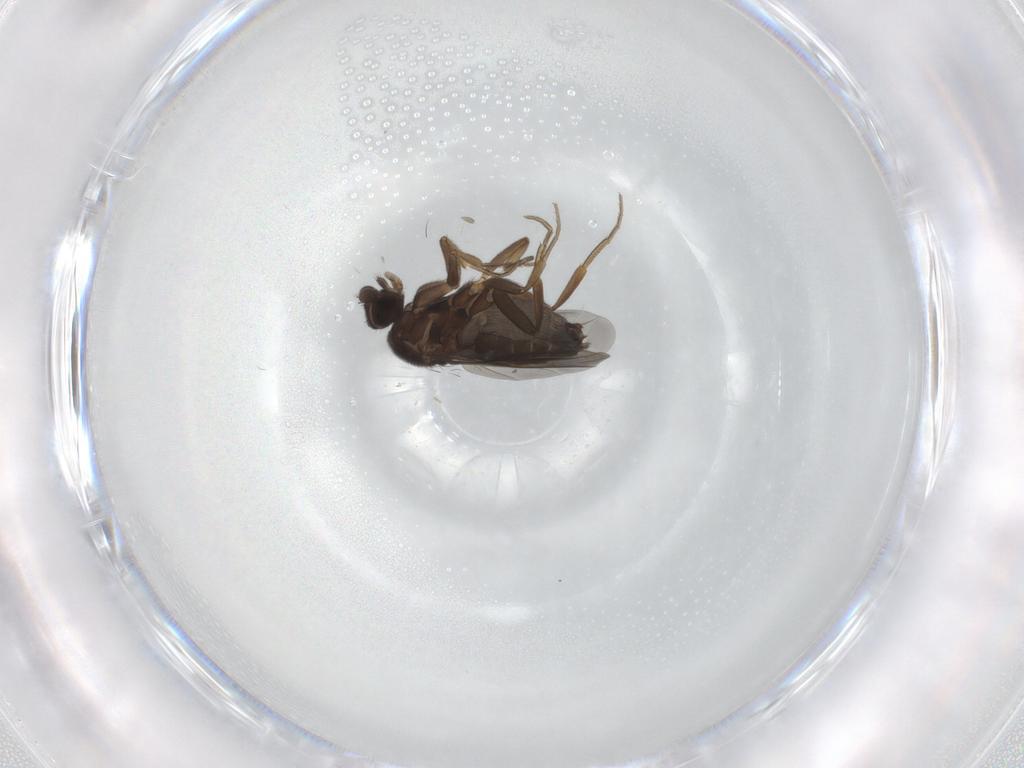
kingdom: Animalia
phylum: Arthropoda
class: Insecta
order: Diptera
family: Phoridae
